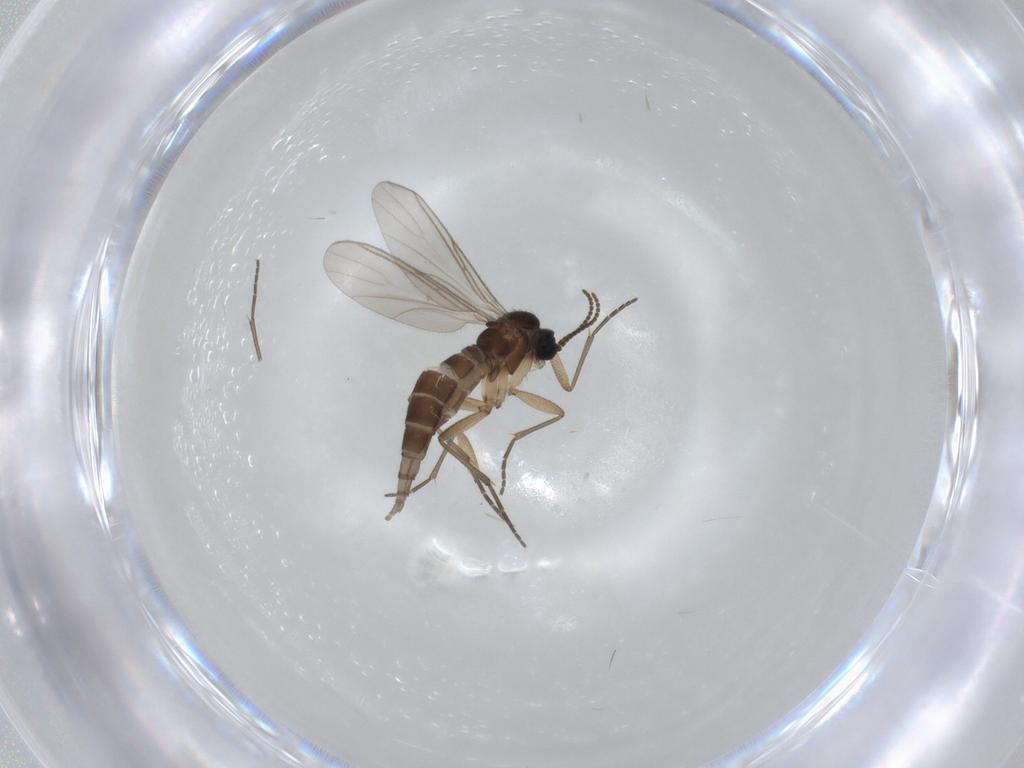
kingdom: Animalia
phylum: Arthropoda
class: Insecta
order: Diptera
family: Sciaridae
